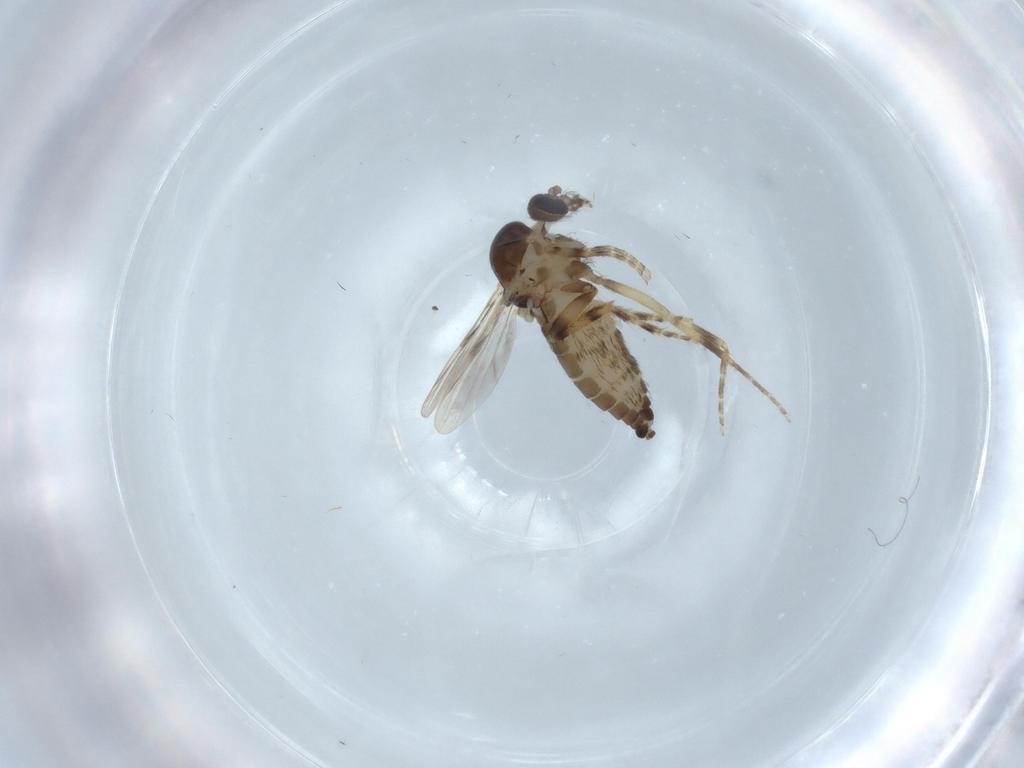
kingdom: Animalia
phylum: Arthropoda
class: Insecta
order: Diptera
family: Ceratopogonidae
